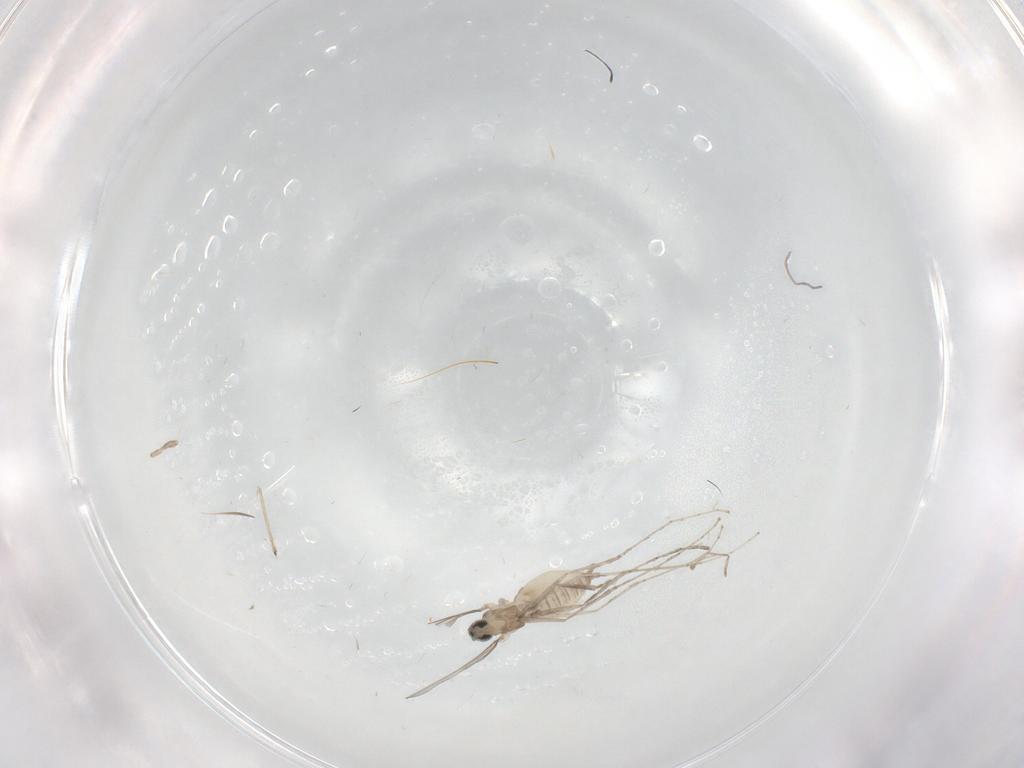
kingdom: Animalia
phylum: Arthropoda
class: Insecta
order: Diptera
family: Cecidomyiidae
